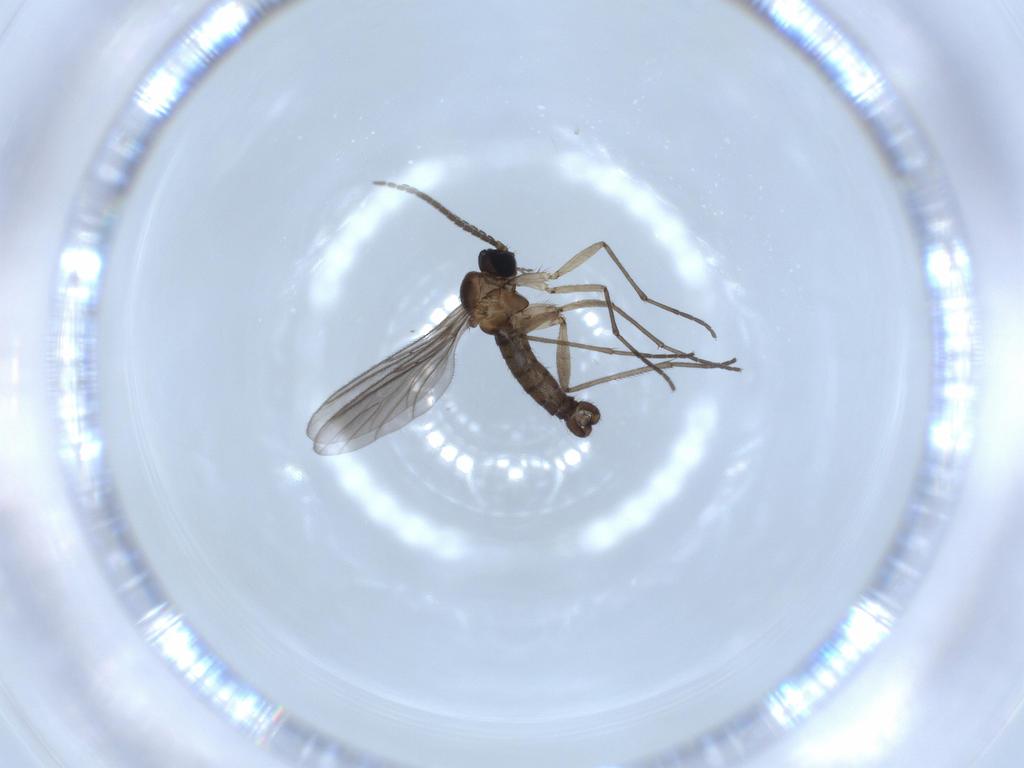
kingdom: Animalia
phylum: Arthropoda
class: Insecta
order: Diptera
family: Sciaridae
